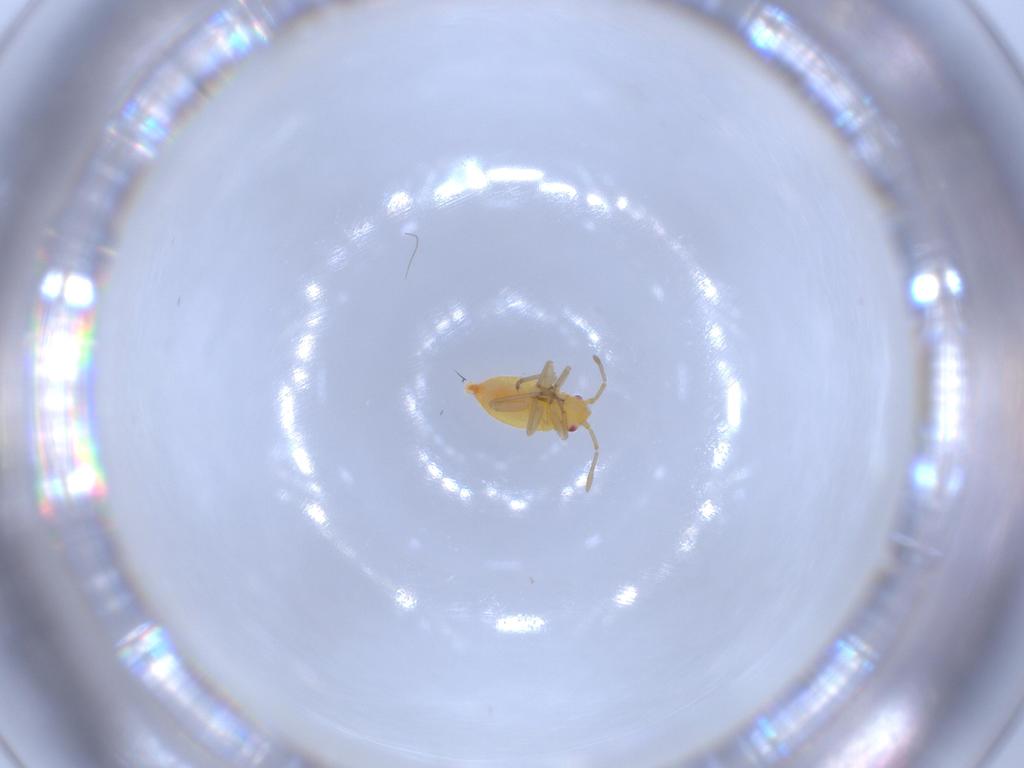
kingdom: Animalia
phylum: Arthropoda
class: Insecta
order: Hemiptera
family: Miridae
